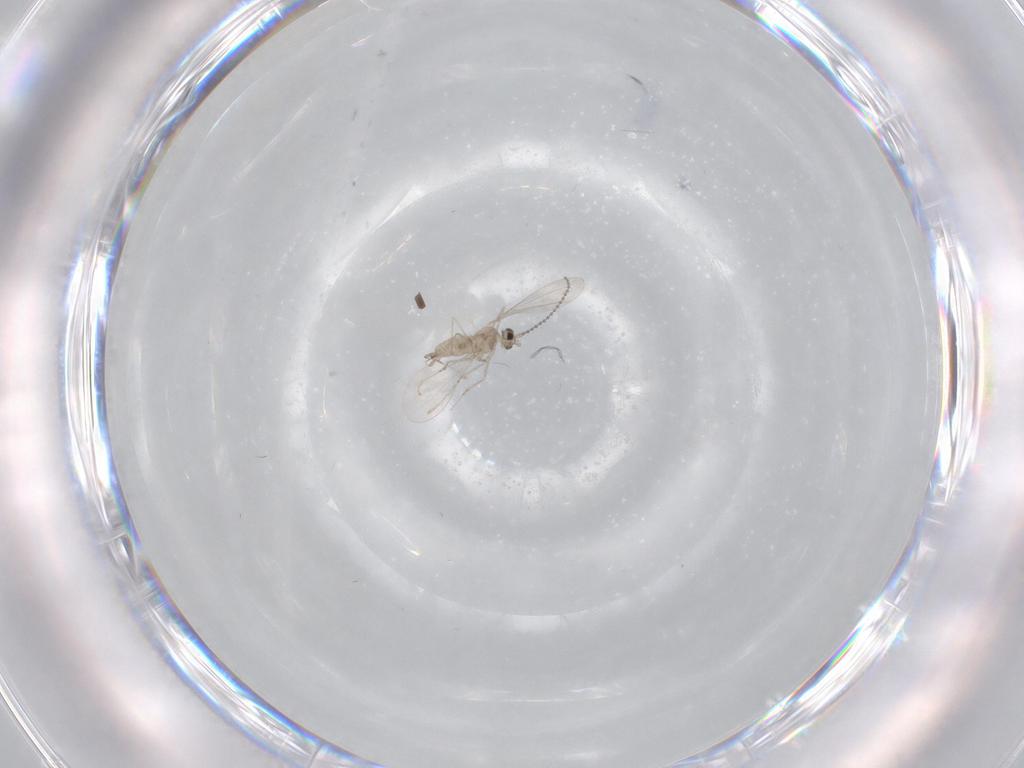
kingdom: Animalia
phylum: Arthropoda
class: Insecta
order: Diptera
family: Cecidomyiidae
